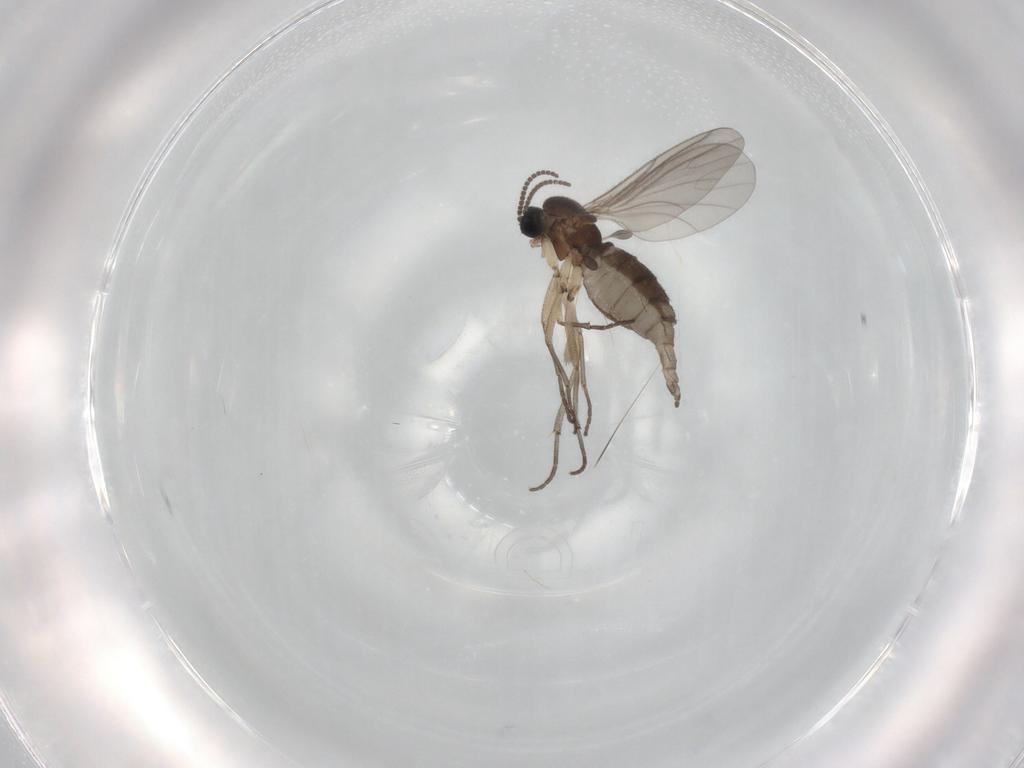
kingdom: Animalia
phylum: Arthropoda
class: Insecta
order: Diptera
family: Sciaridae
